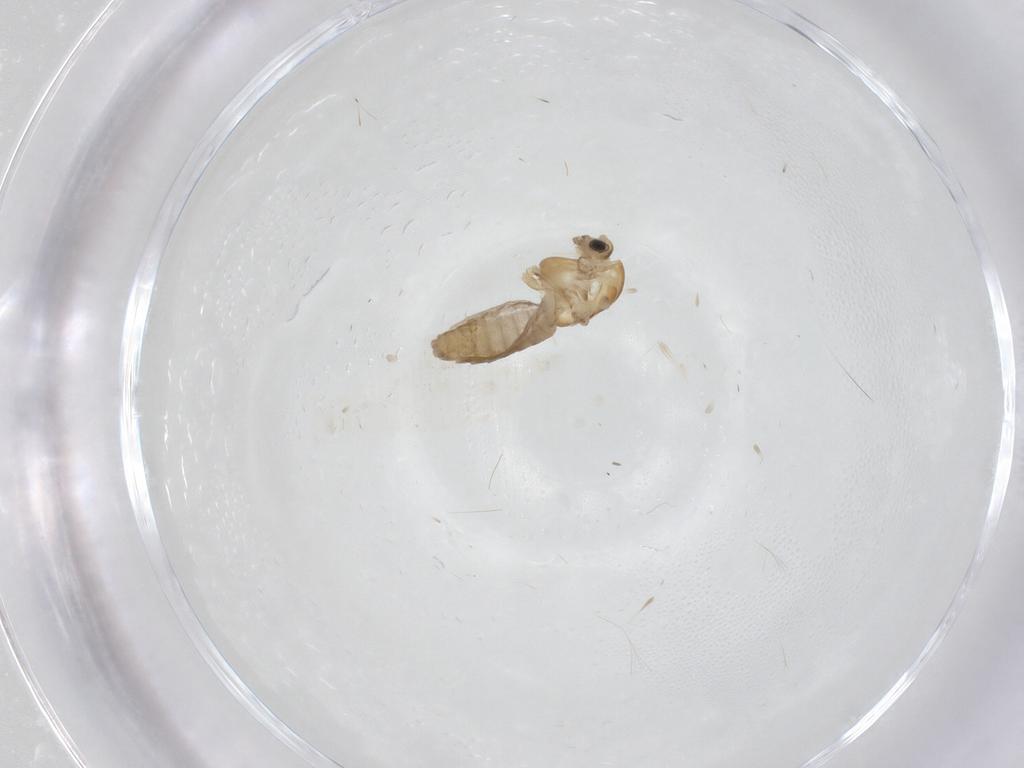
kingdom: Animalia
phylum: Arthropoda
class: Insecta
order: Diptera
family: Chironomidae
